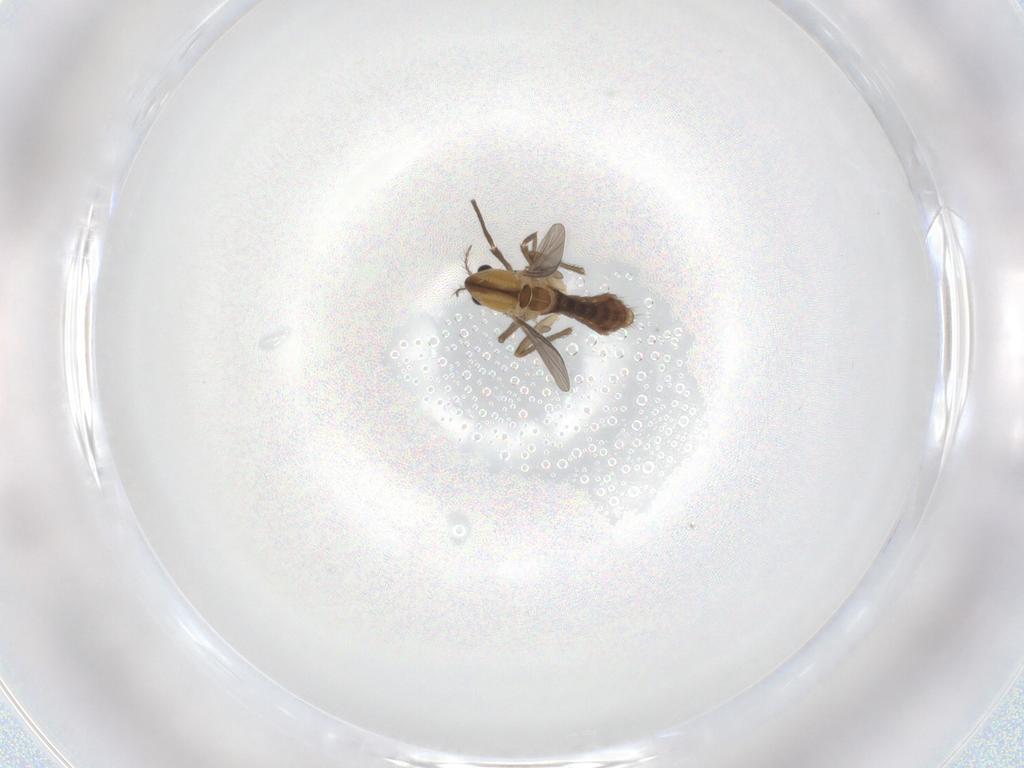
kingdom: Animalia
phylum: Arthropoda
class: Insecta
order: Diptera
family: Chironomidae
